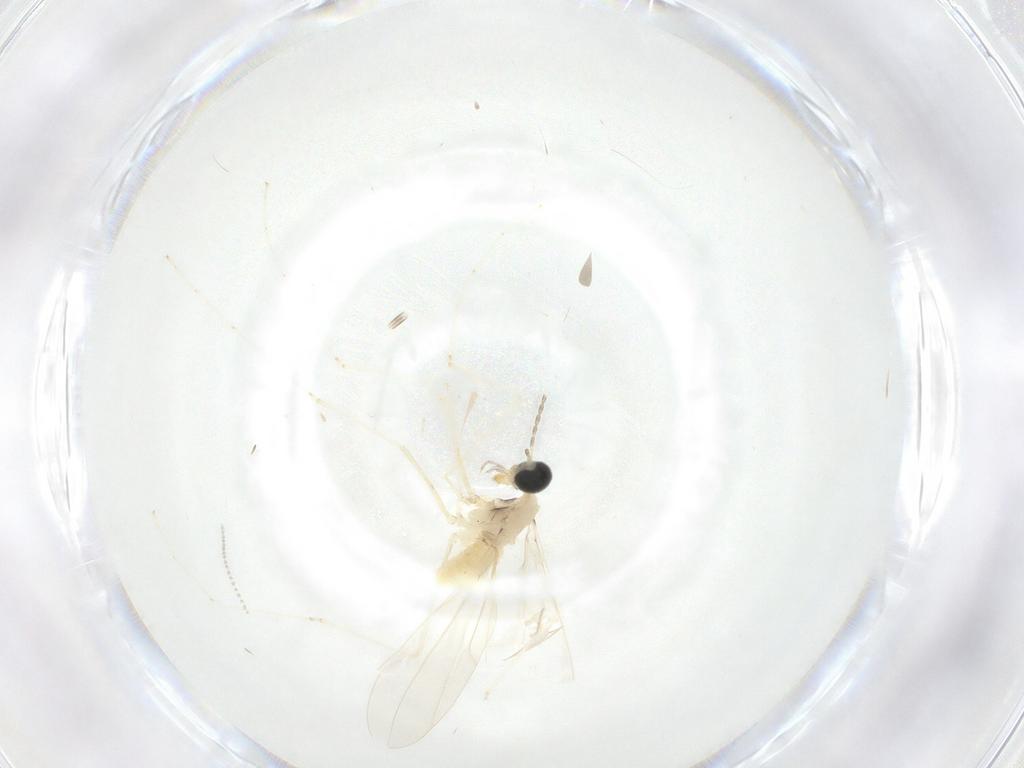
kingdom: Animalia
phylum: Arthropoda
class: Insecta
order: Diptera
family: Cecidomyiidae
